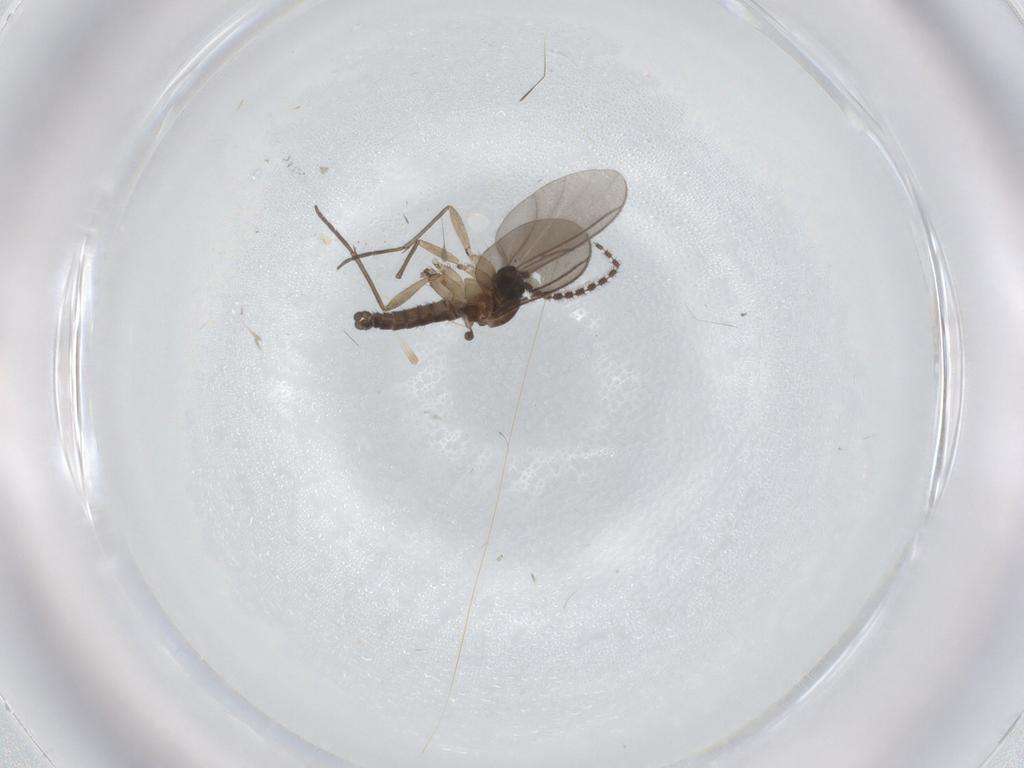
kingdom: Animalia
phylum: Arthropoda
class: Insecta
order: Diptera
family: Sciaridae
